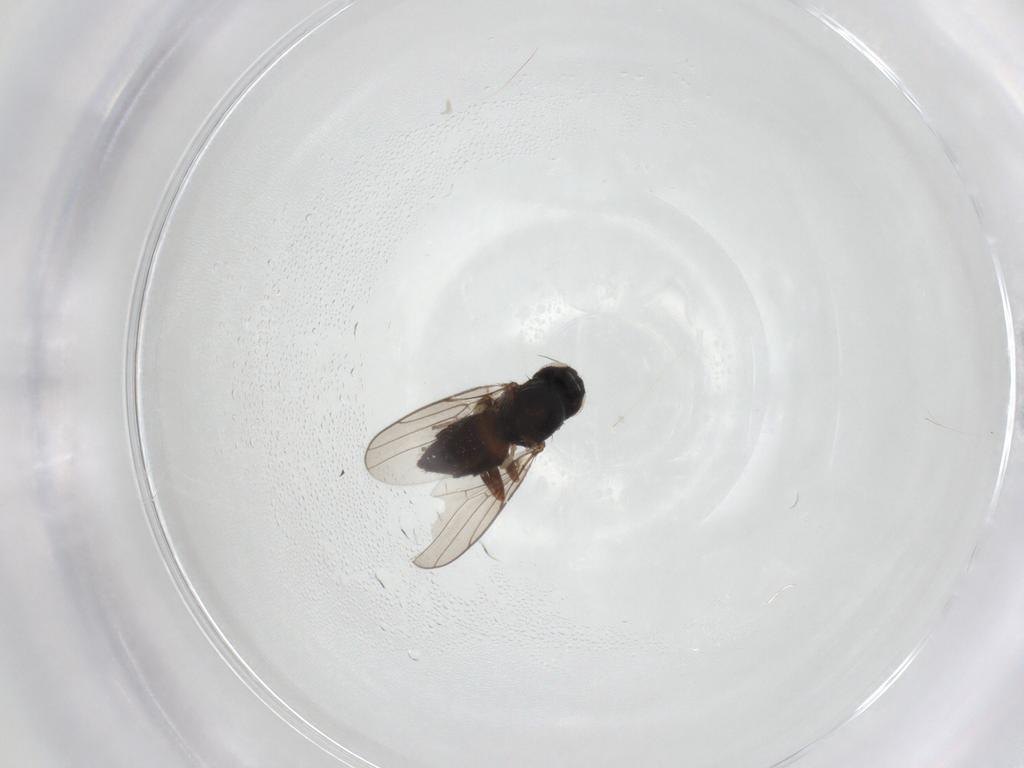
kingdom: Animalia
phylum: Arthropoda
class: Insecta
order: Diptera
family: Chloropidae
